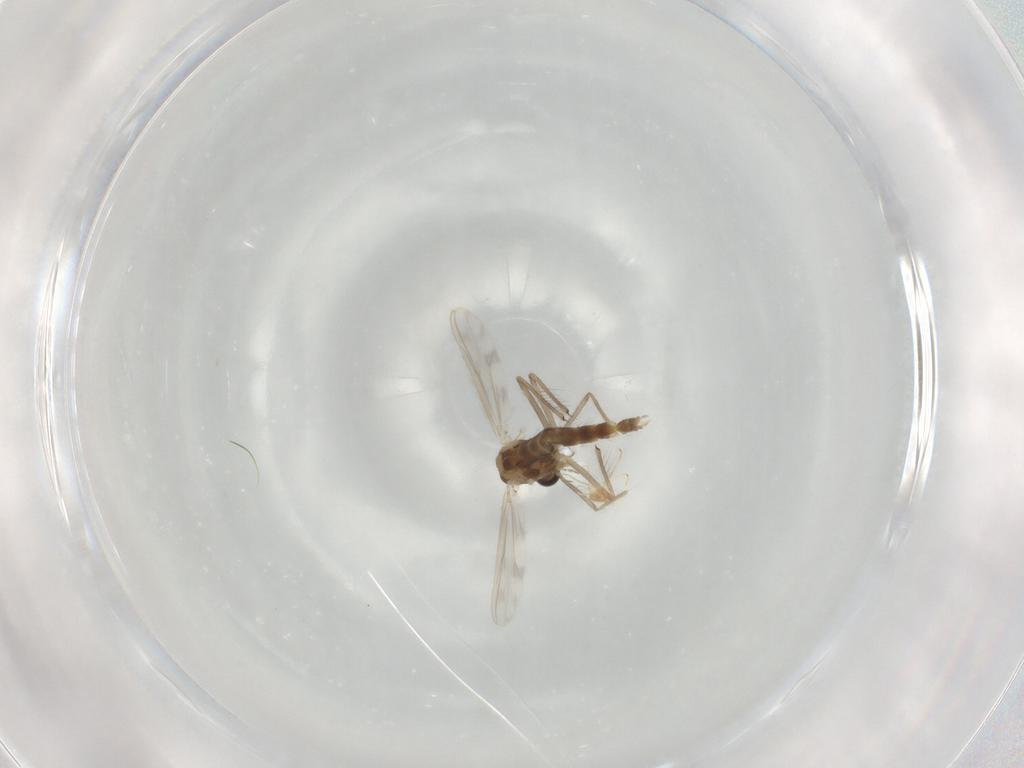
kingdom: Animalia
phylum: Arthropoda
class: Insecta
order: Diptera
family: Chironomidae
